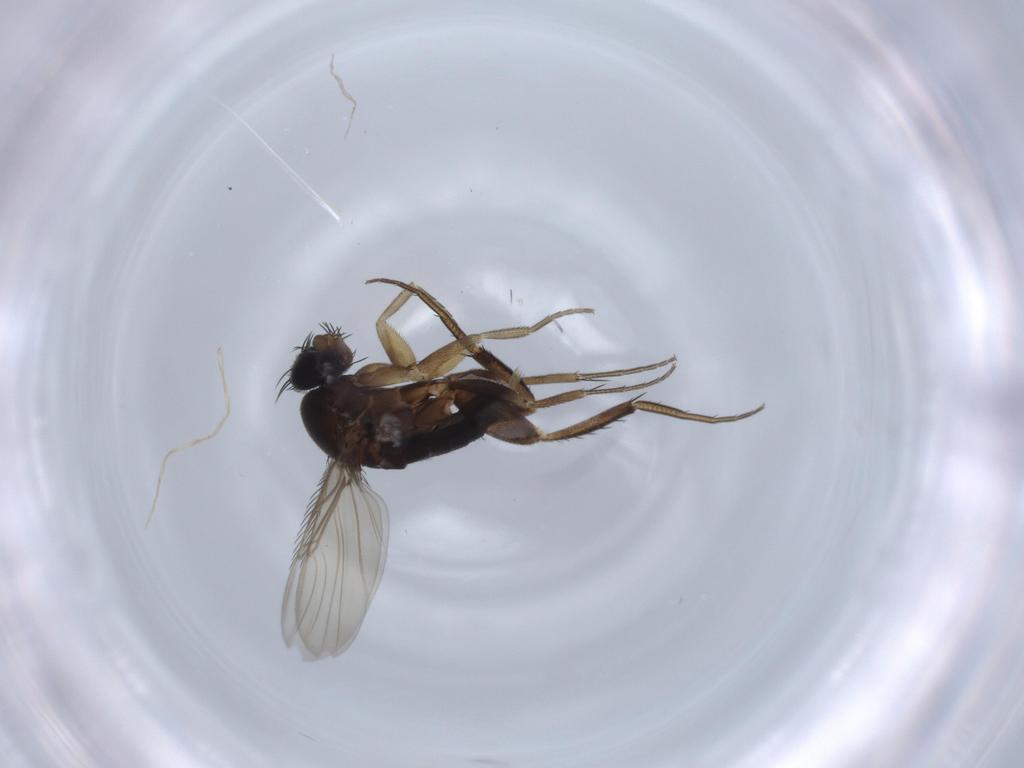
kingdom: Animalia
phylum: Arthropoda
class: Insecta
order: Diptera
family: Phoridae
